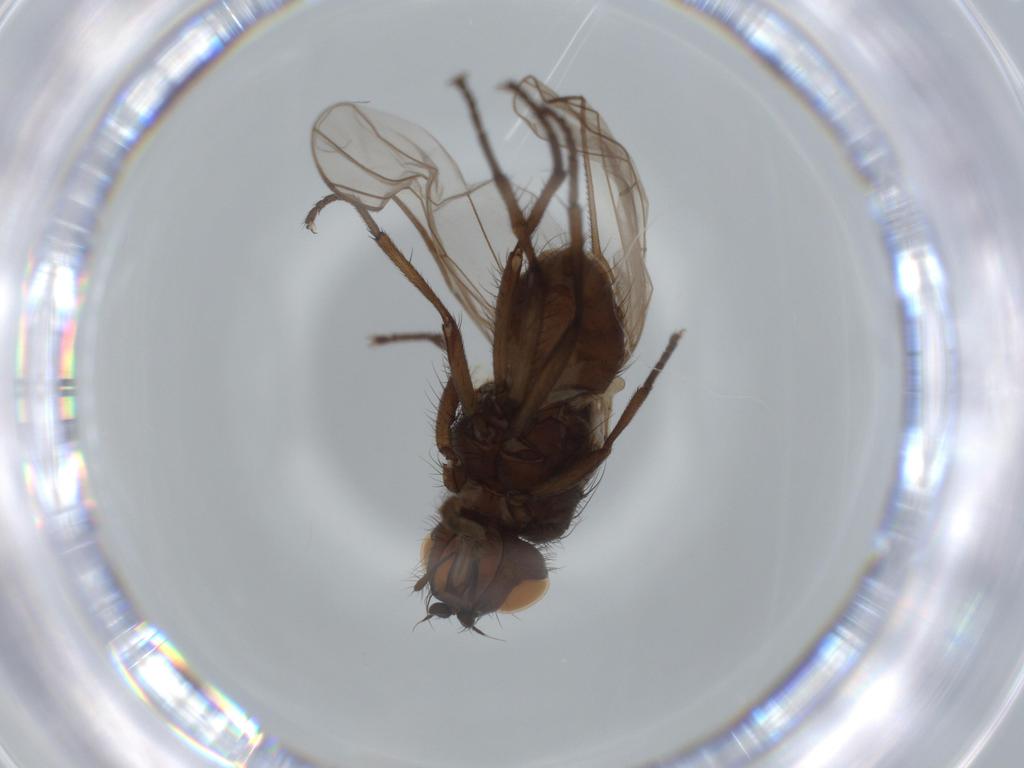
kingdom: Animalia
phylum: Arthropoda
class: Insecta
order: Diptera
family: Anthomyiidae
